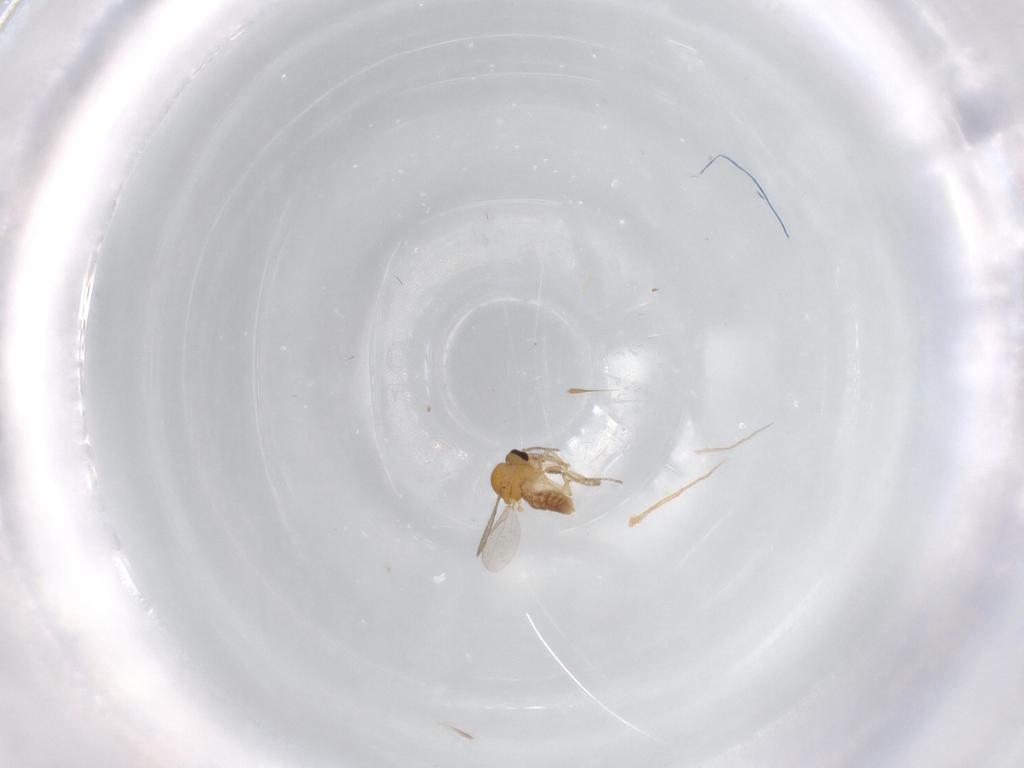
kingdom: Animalia
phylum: Arthropoda
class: Insecta
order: Diptera
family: Ceratopogonidae
